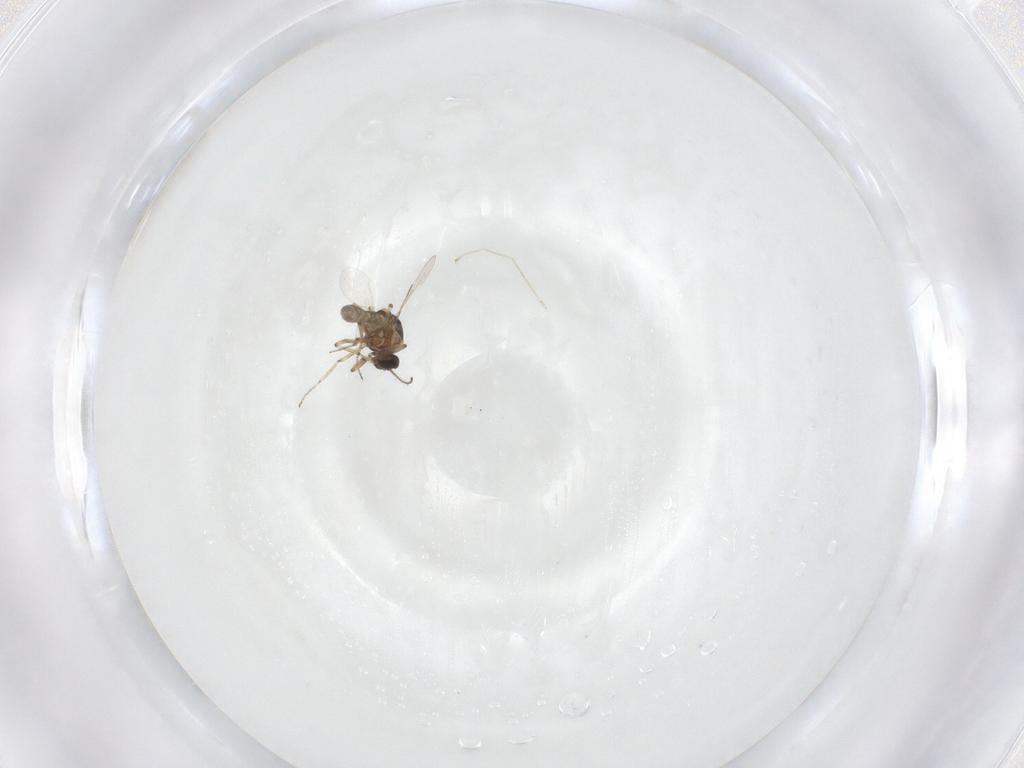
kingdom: Animalia
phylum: Arthropoda
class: Insecta
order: Diptera
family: Ceratopogonidae
